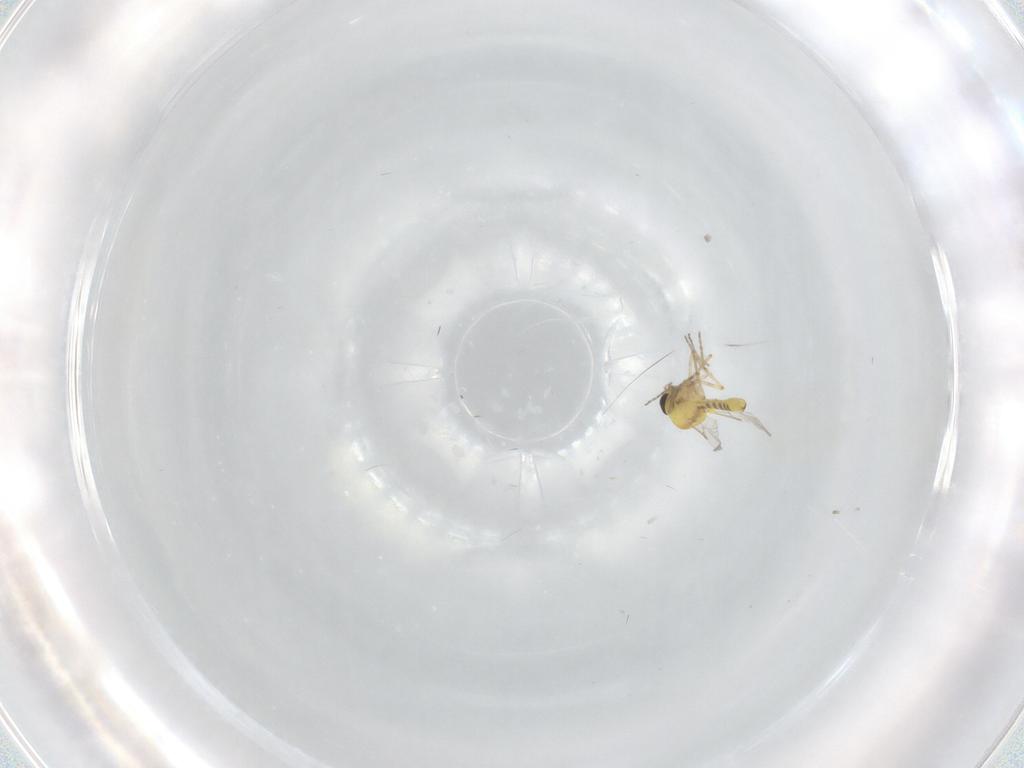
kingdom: Animalia
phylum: Arthropoda
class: Insecta
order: Diptera
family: Ceratopogonidae
